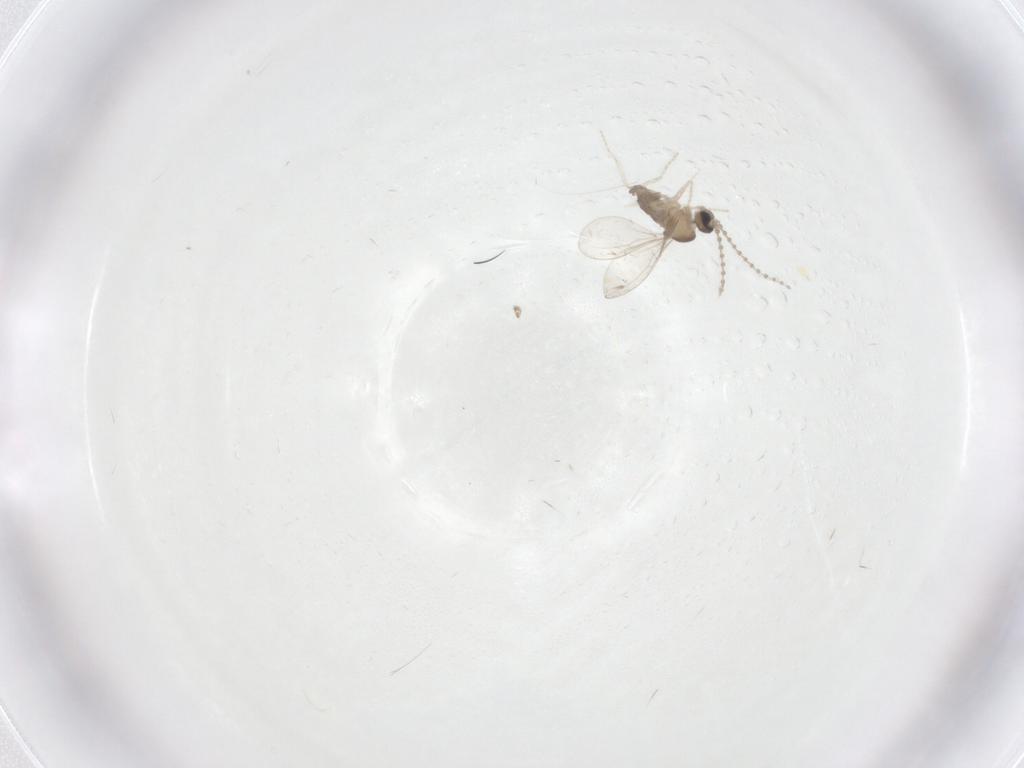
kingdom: Animalia
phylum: Arthropoda
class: Insecta
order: Diptera
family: Cecidomyiidae
